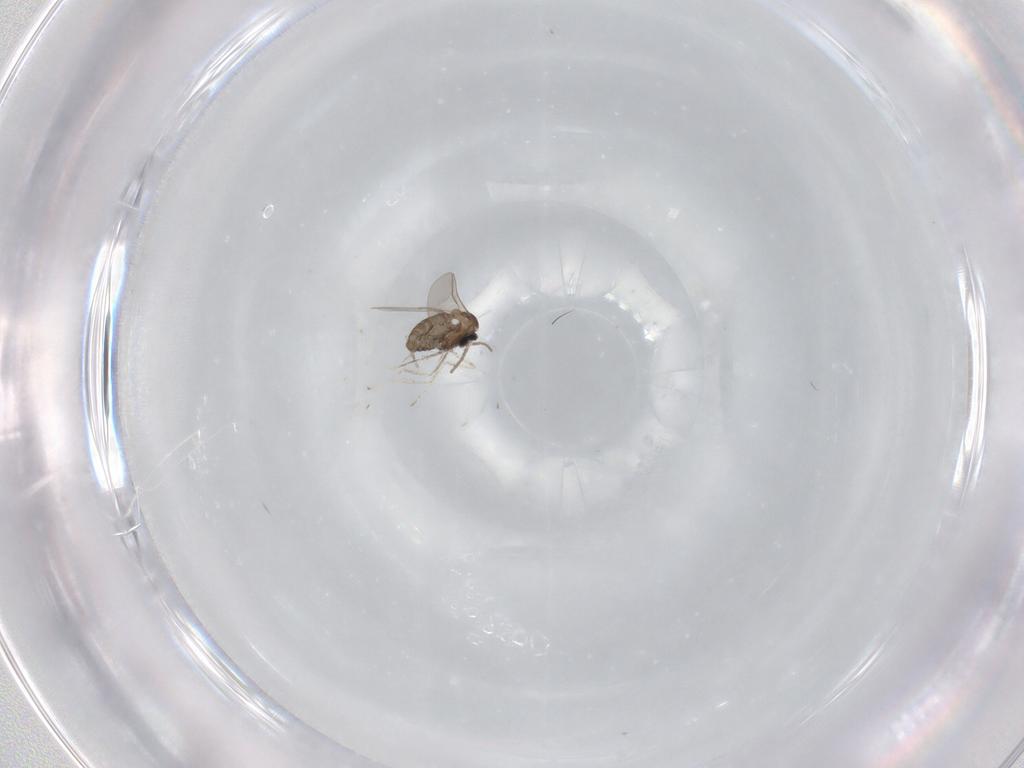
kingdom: Animalia
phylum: Arthropoda
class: Insecta
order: Diptera
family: Cecidomyiidae
